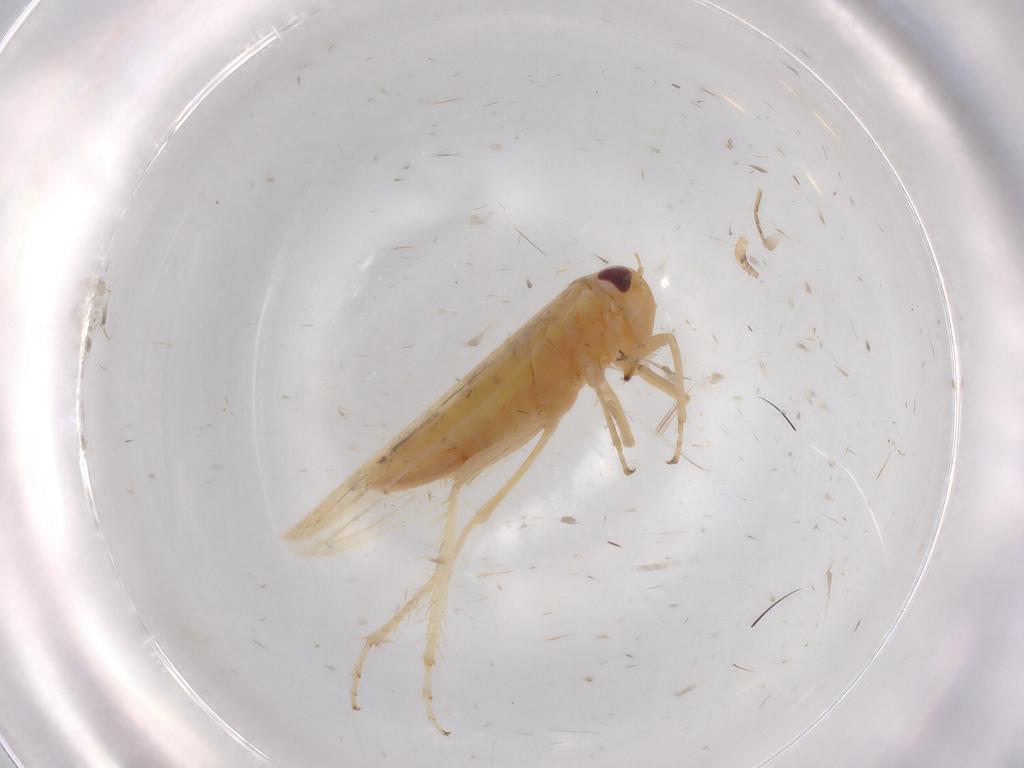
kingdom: Animalia
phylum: Arthropoda
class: Insecta
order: Hemiptera
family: Cicadellidae
